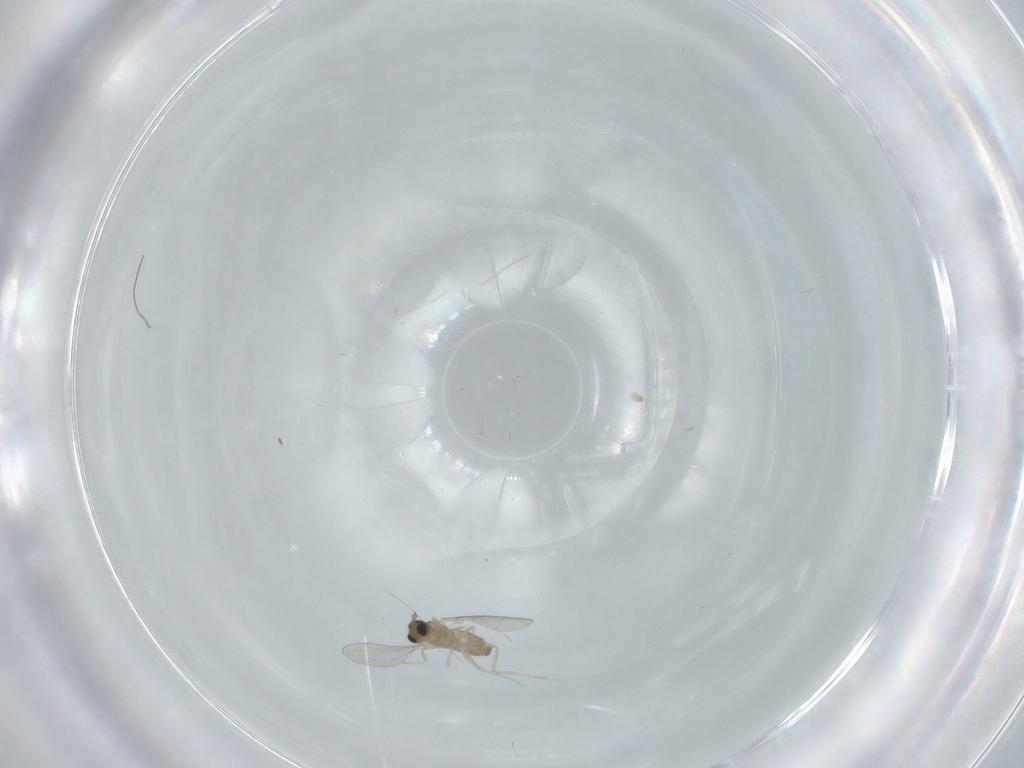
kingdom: Animalia
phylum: Arthropoda
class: Insecta
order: Diptera
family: Cecidomyiidae
